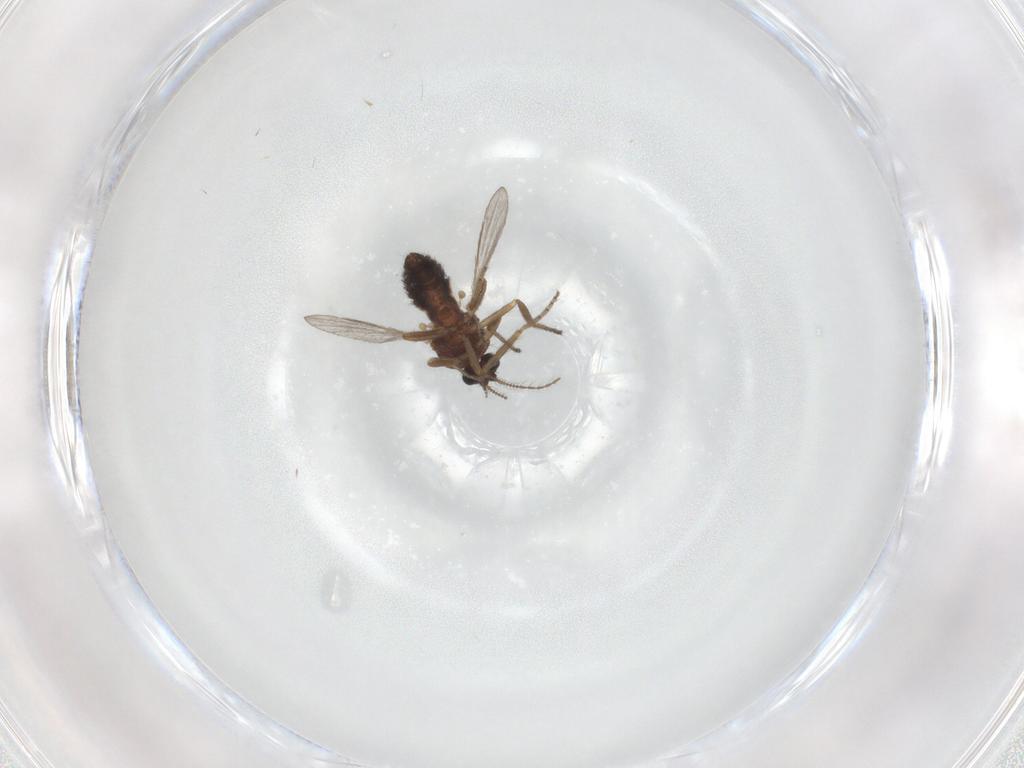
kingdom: Animalia
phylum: Arthropoda
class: Insecta
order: Diptera
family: Ceratopogonidae
